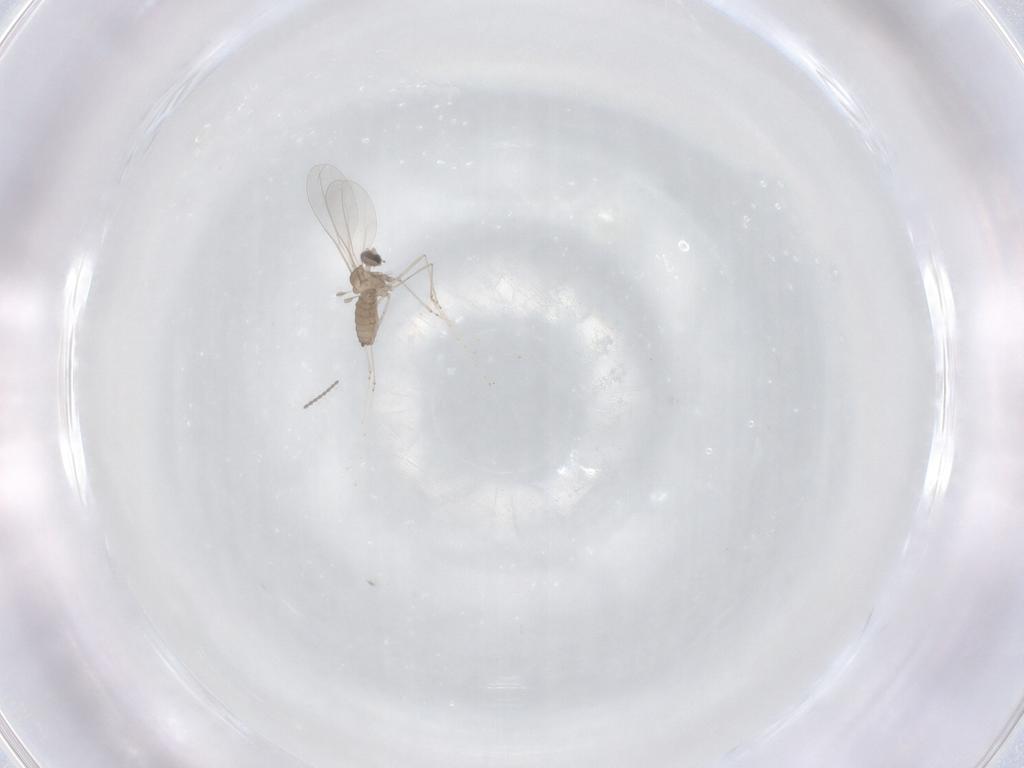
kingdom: Animalia
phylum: Arthropoda
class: Insecta
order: Diptera
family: Cecidomyiidae
